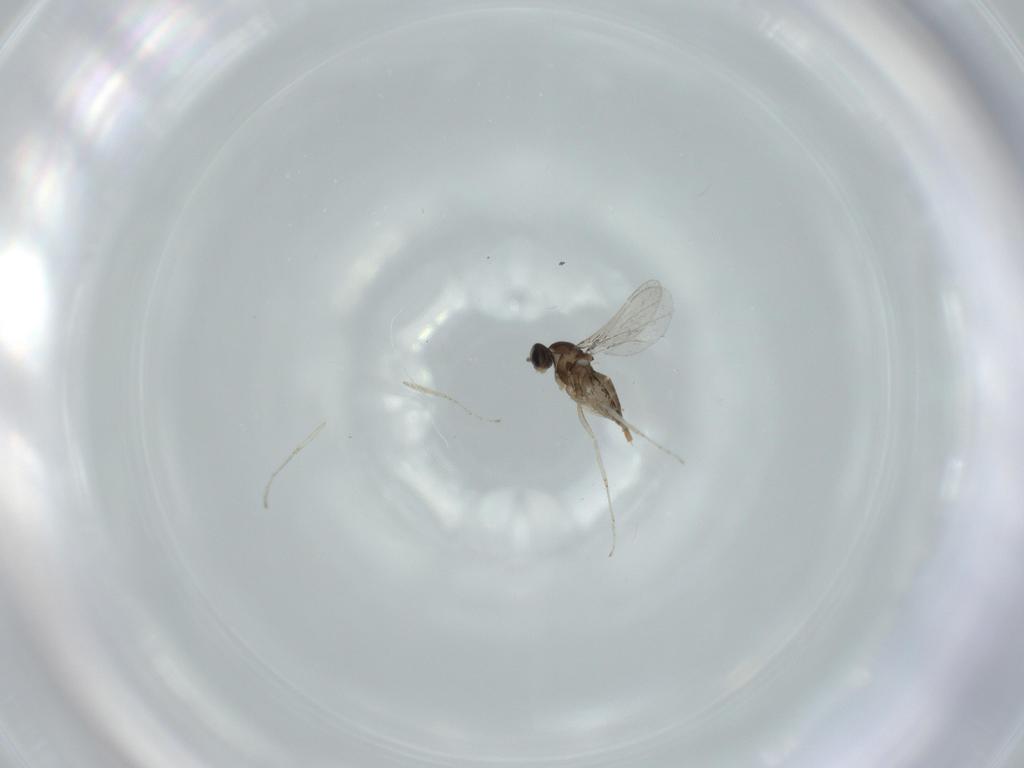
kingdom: Animalia
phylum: Arthropoda
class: Insecta
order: Diptera
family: Cecidomyiidae
